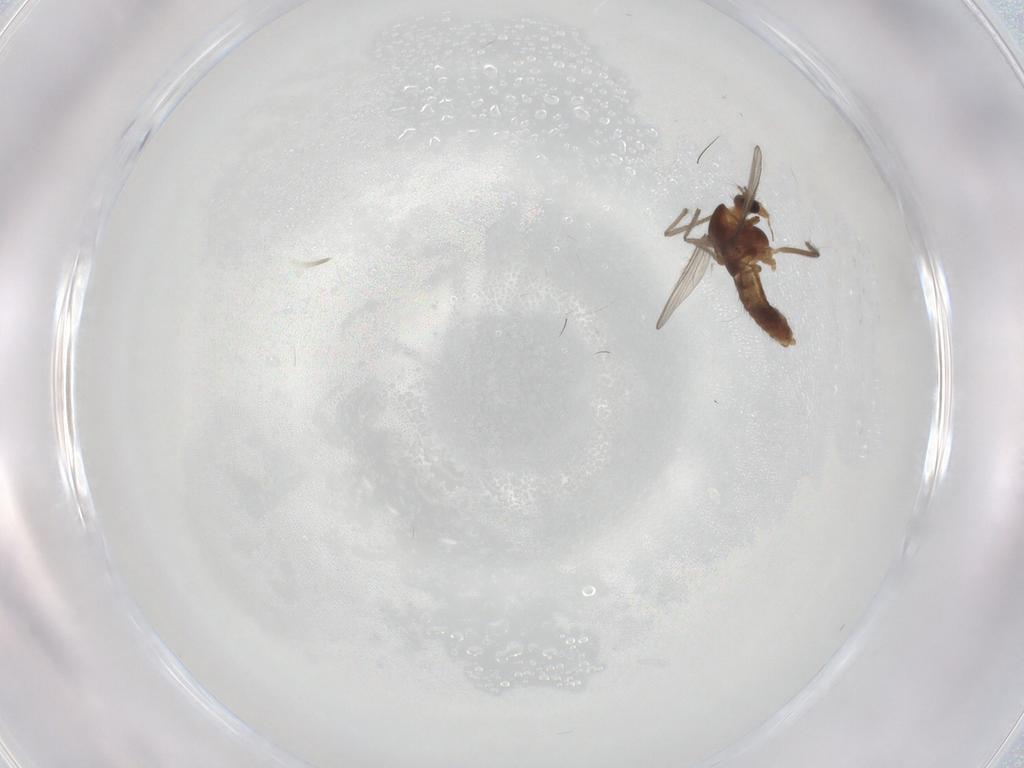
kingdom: Animalia
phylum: Arthropoda
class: Insecta
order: Diptera
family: Chironomidae
